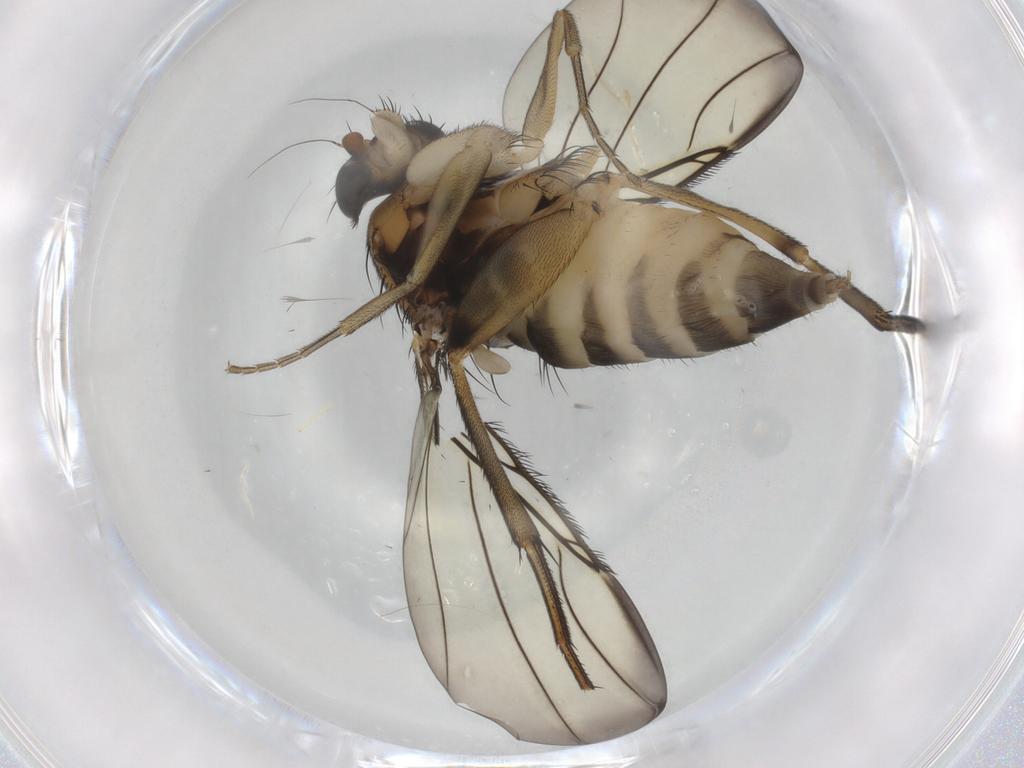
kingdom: Animalia
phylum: Arthropoda
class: Insecta
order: Diptera
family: Phoridae
